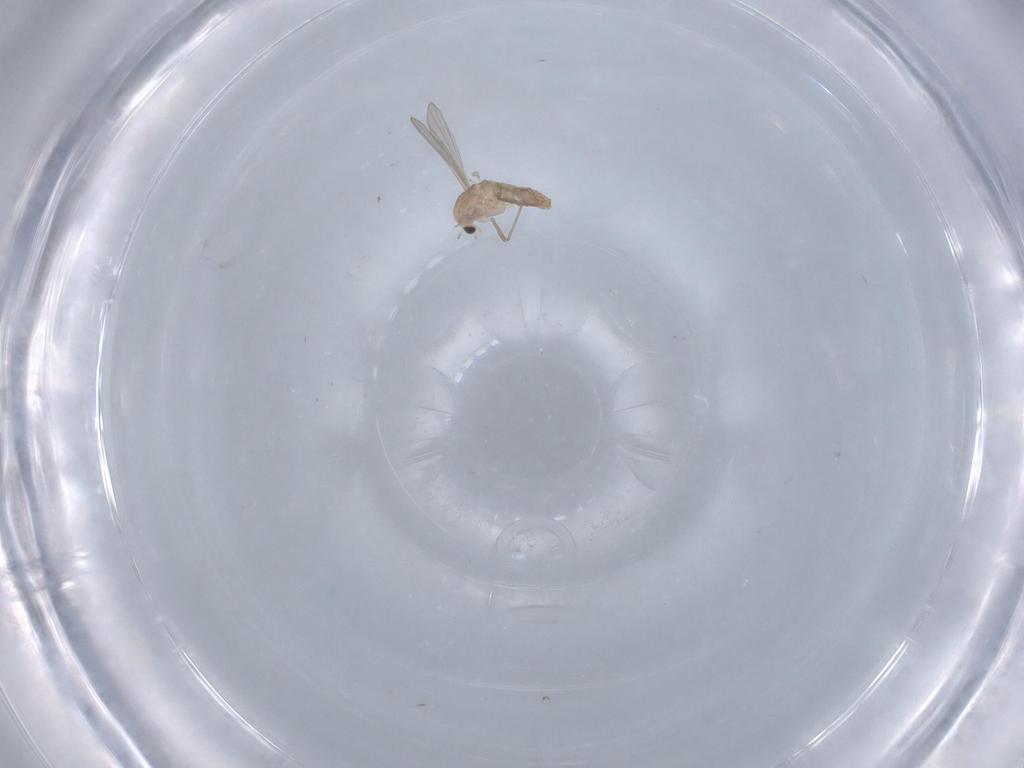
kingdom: Animalia
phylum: Arthropoda
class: Insecta
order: Diptera
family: Chironomidae
